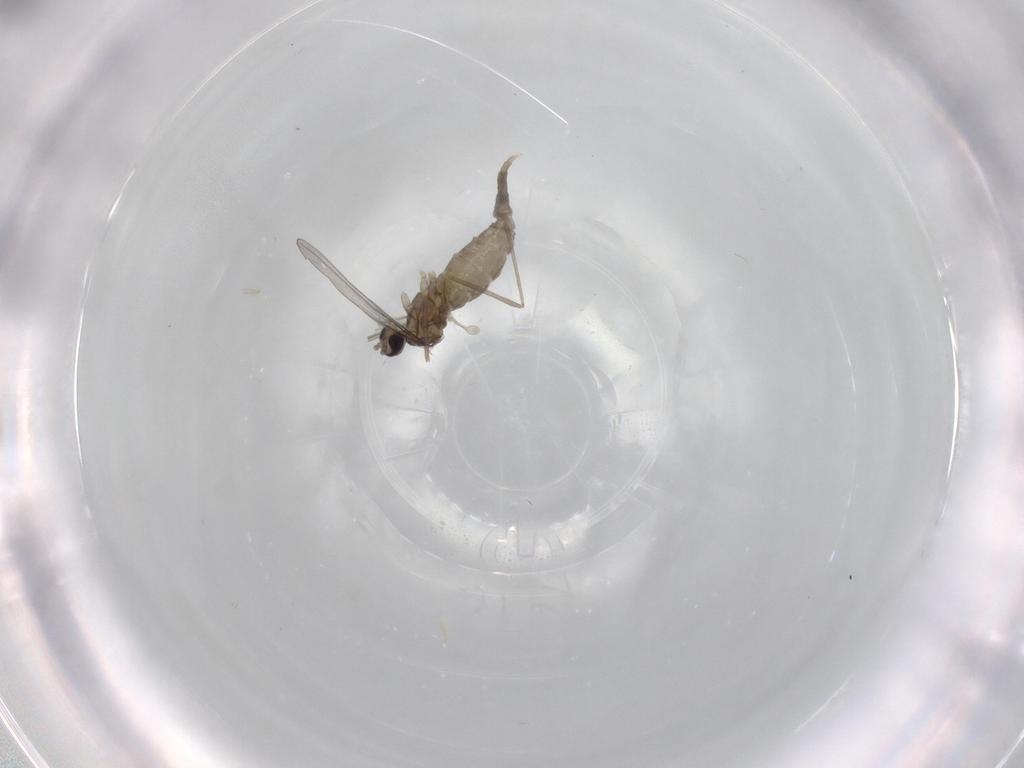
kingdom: Animalia
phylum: Arthropoda
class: Insecta
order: Diptera
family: Cecidomyiidae
